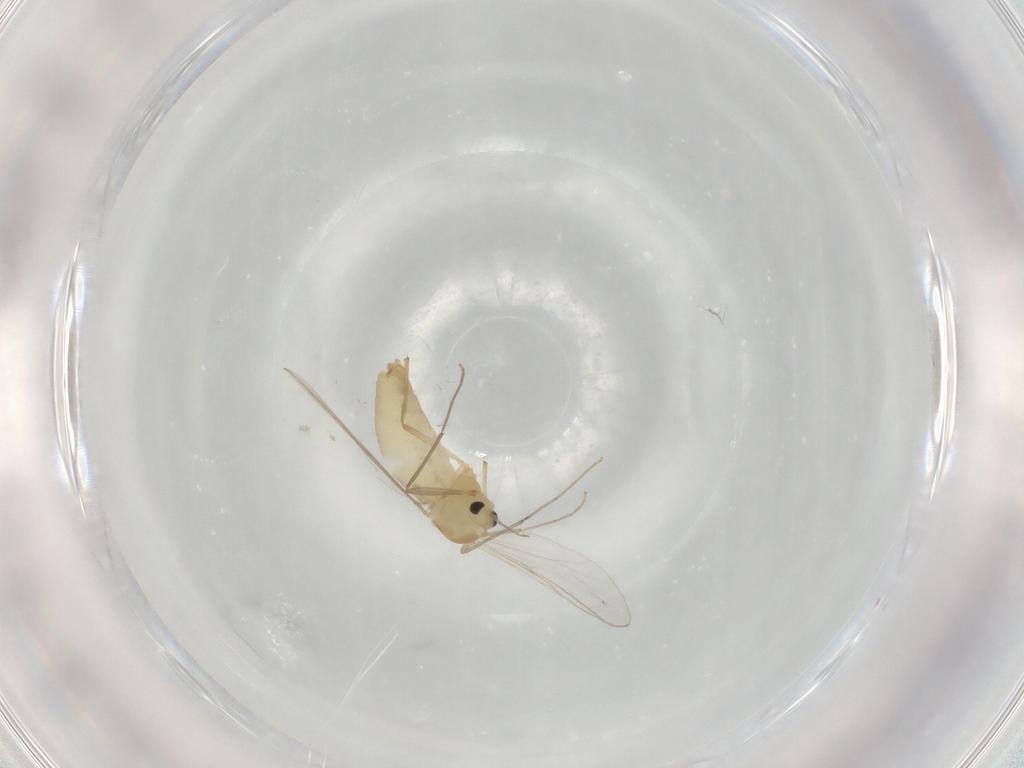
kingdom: Animalia
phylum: Arthropoda
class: Insecta
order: Diptera
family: Chironomidae
